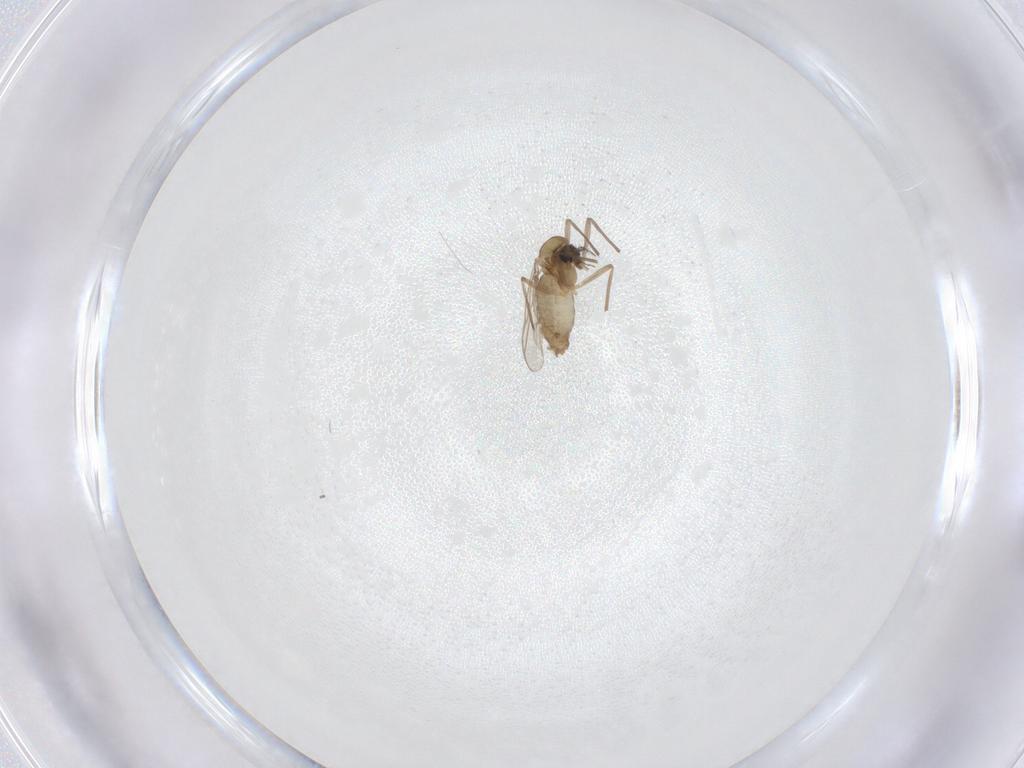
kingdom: Animalia
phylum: Arthropoda
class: Insecta
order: Diptera
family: Chironomidae
